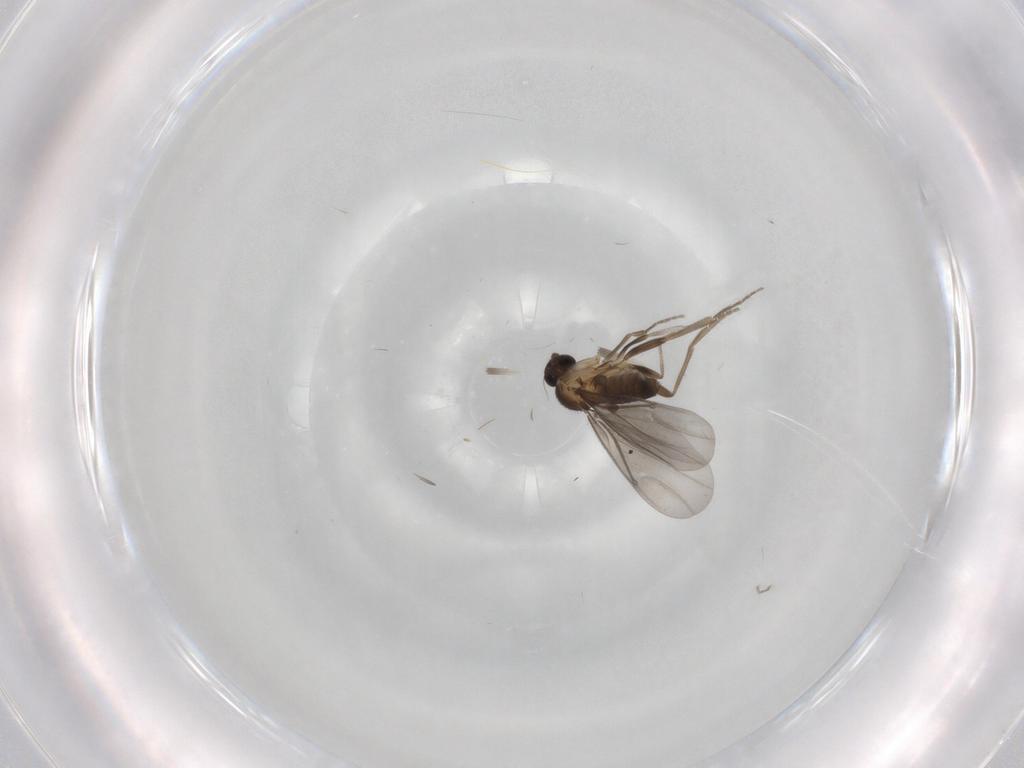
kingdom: Animalia
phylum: Arthropoda
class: Insecta
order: Diptera
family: Phoridae
